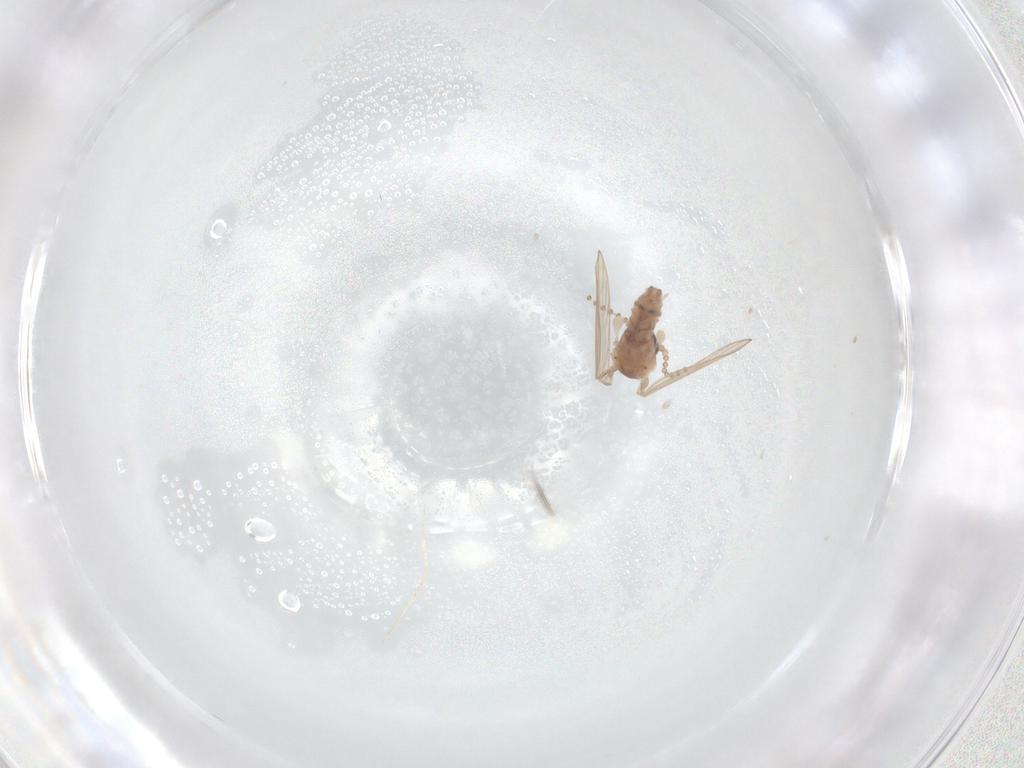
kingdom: Animalia
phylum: Arthropoda
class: Insecta
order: Diptera
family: Psychodidae
